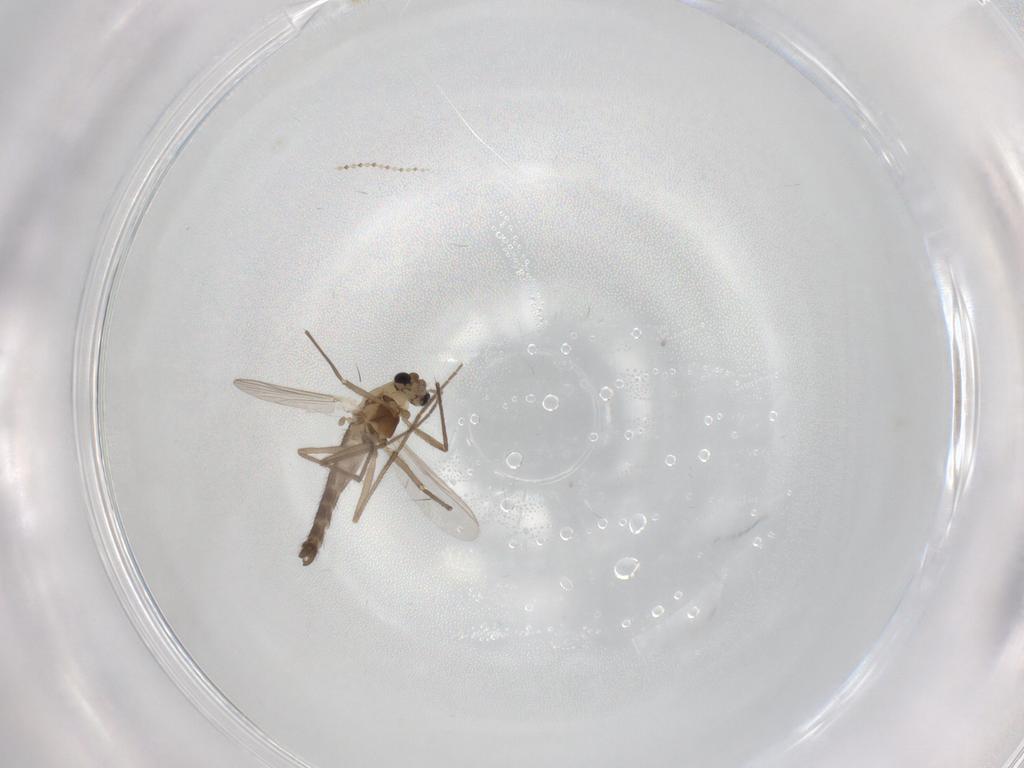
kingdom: Animalia
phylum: Arthropoda
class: Insecta
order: Diptera
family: Chironomidae
